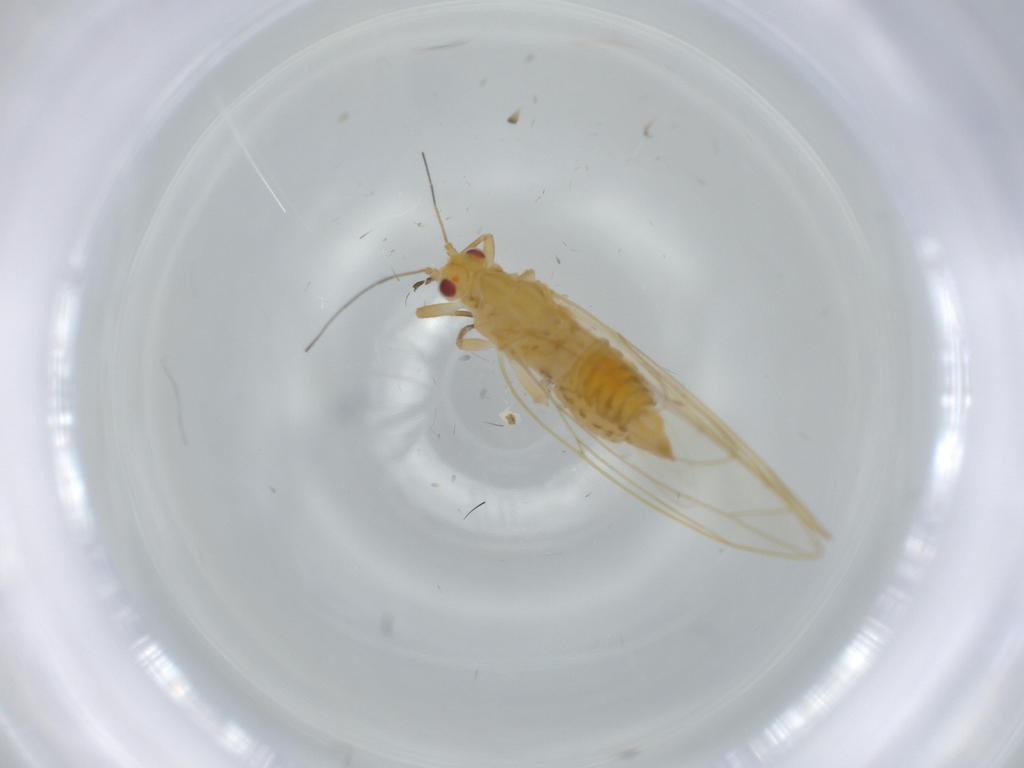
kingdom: Animalia
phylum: Arthropoda
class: Insecta
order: Hemiptera
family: Triozidae
